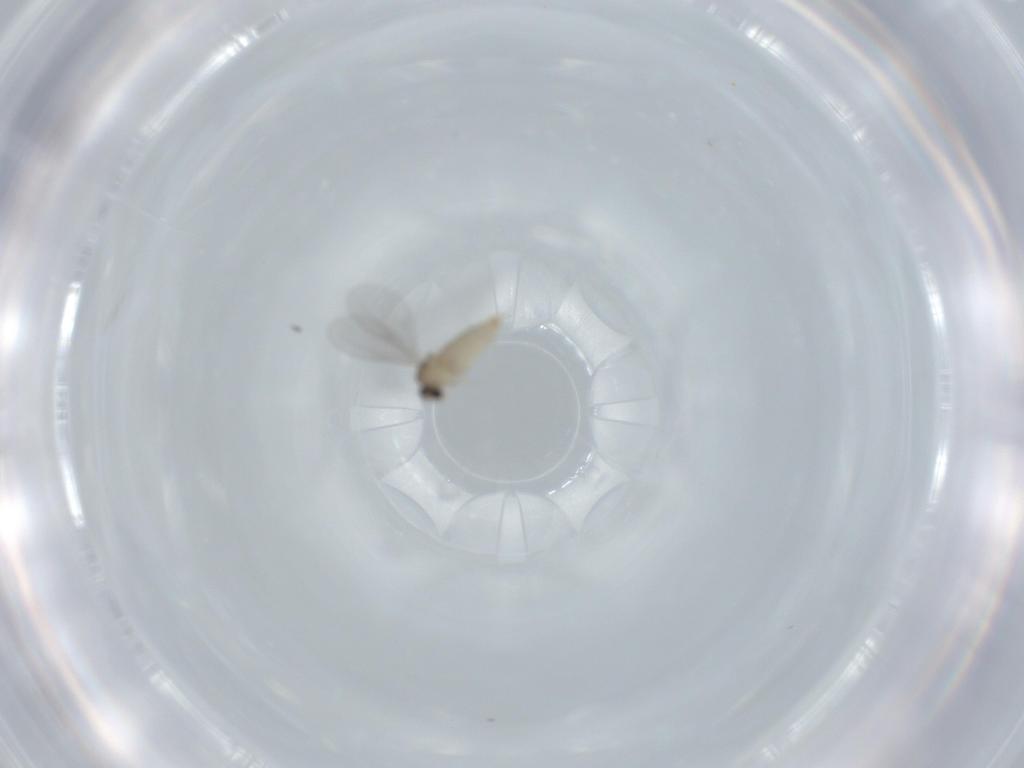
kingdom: Animalia
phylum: Arthropoda
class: Insecta
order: Diptera
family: Cecidomyiidae
